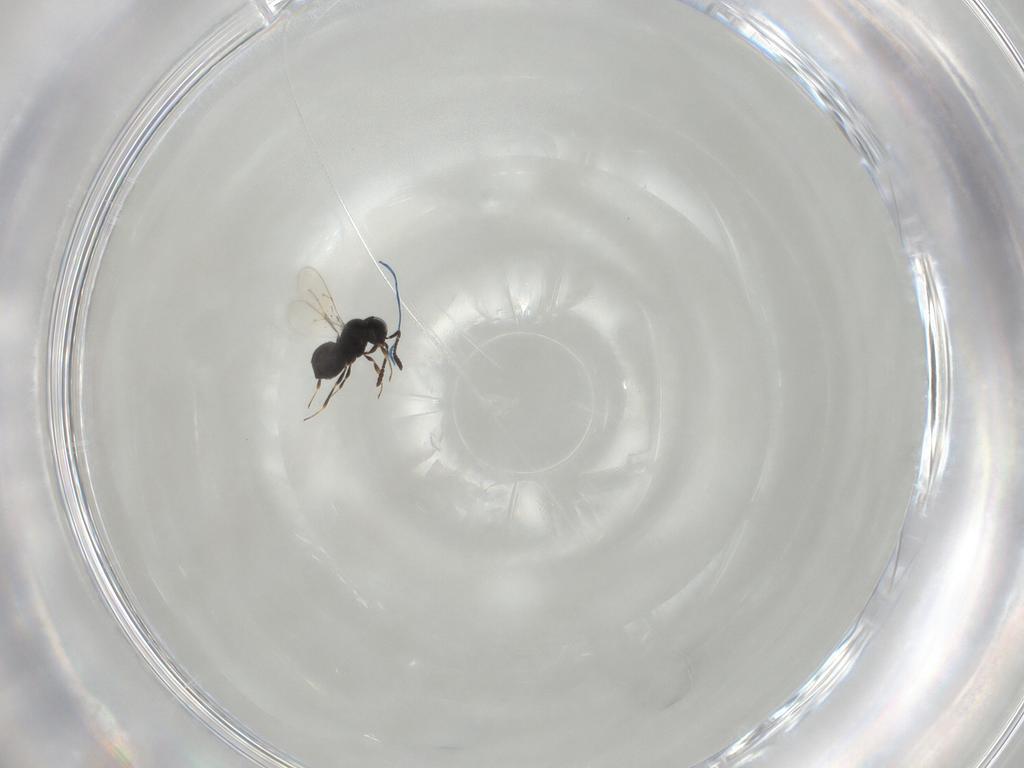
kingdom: Animalia
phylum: Arthropoda
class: Insecta
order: Hymenoptera
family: Scelionidae
